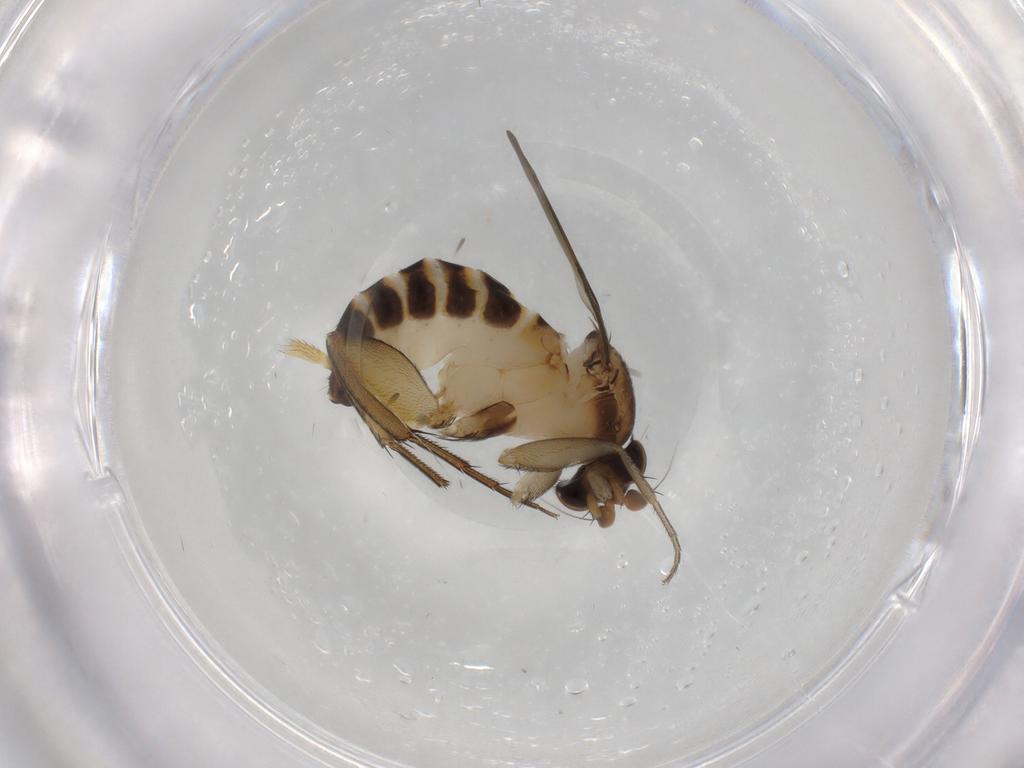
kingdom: Animalia
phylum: Arthropoda
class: Insecta
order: Diptera
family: Phoridae
